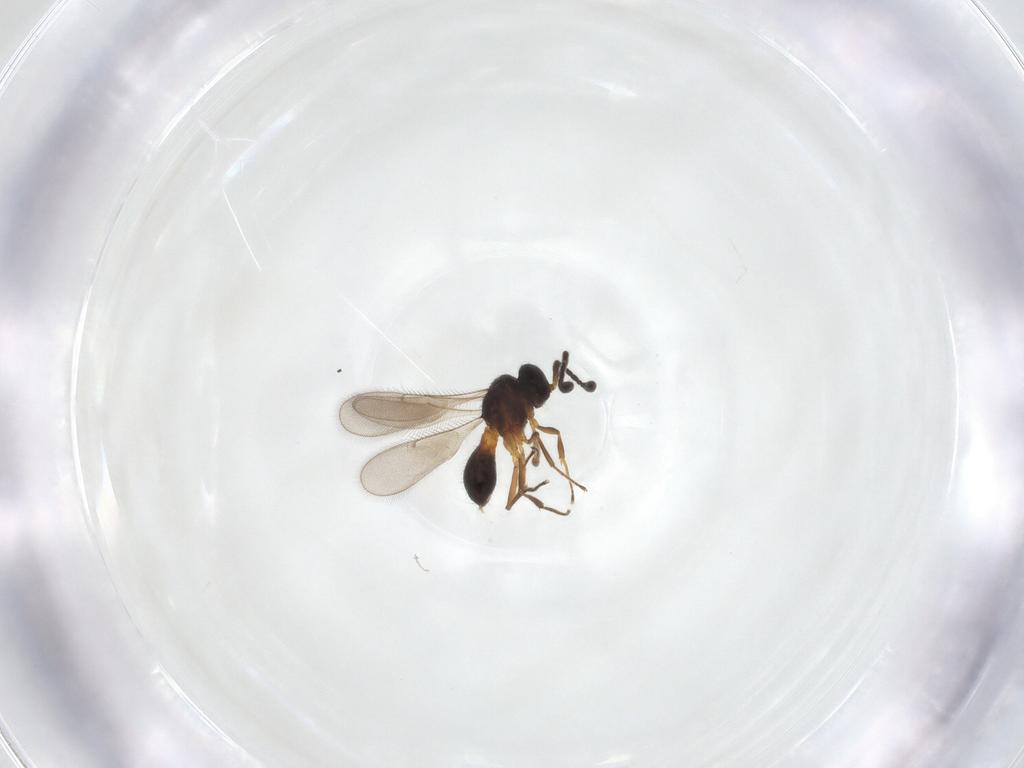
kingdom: Animalia
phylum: Arthropoda
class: Insecta
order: Hymenoptera
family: Scelionidae
